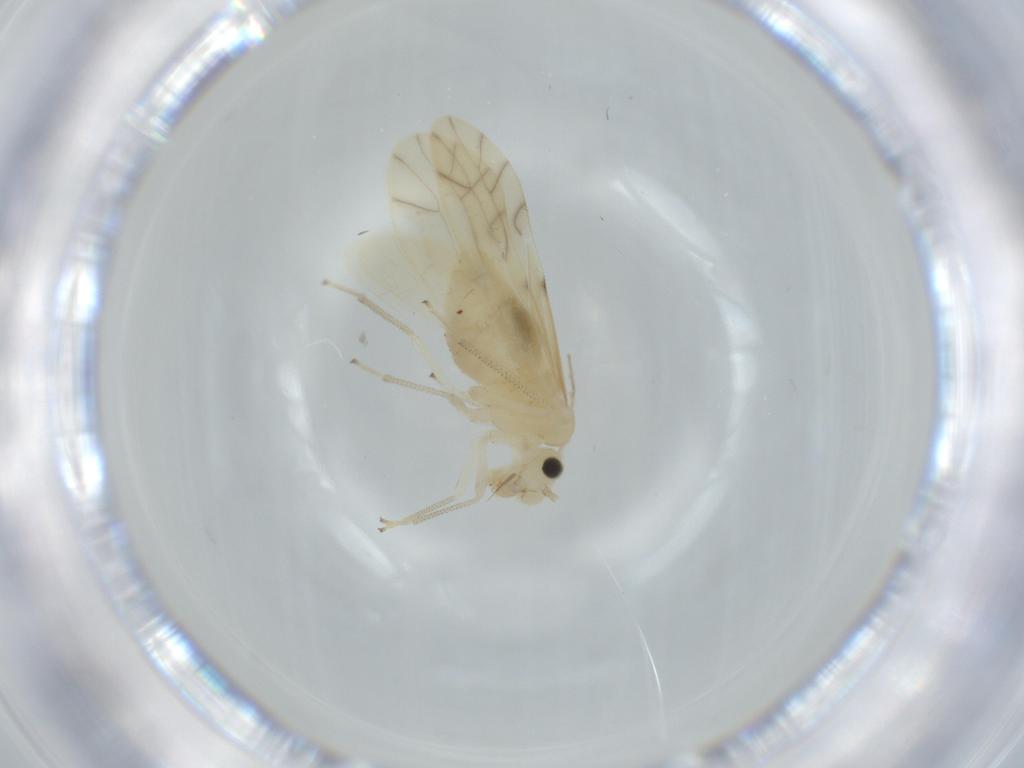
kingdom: Animalia
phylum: Arthropoda
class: Insecta
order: Psocodea
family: Caeciliusidae
